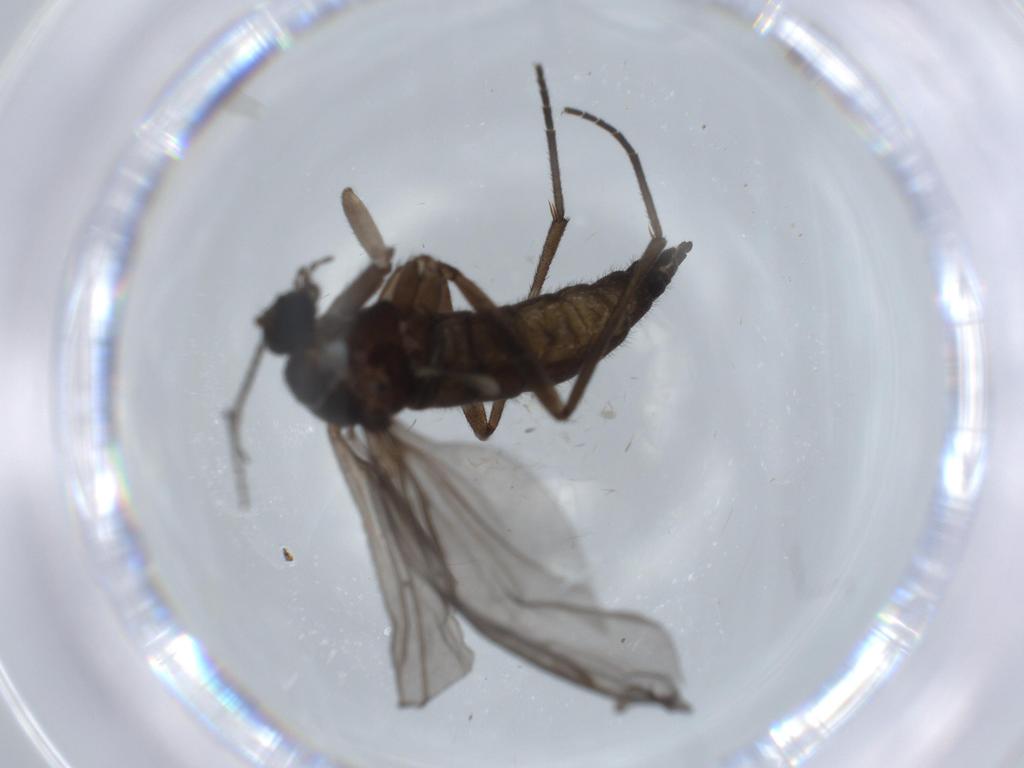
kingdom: Animalia
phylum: Arthropoda
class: Insecta
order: Diptera
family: Sciaridae
